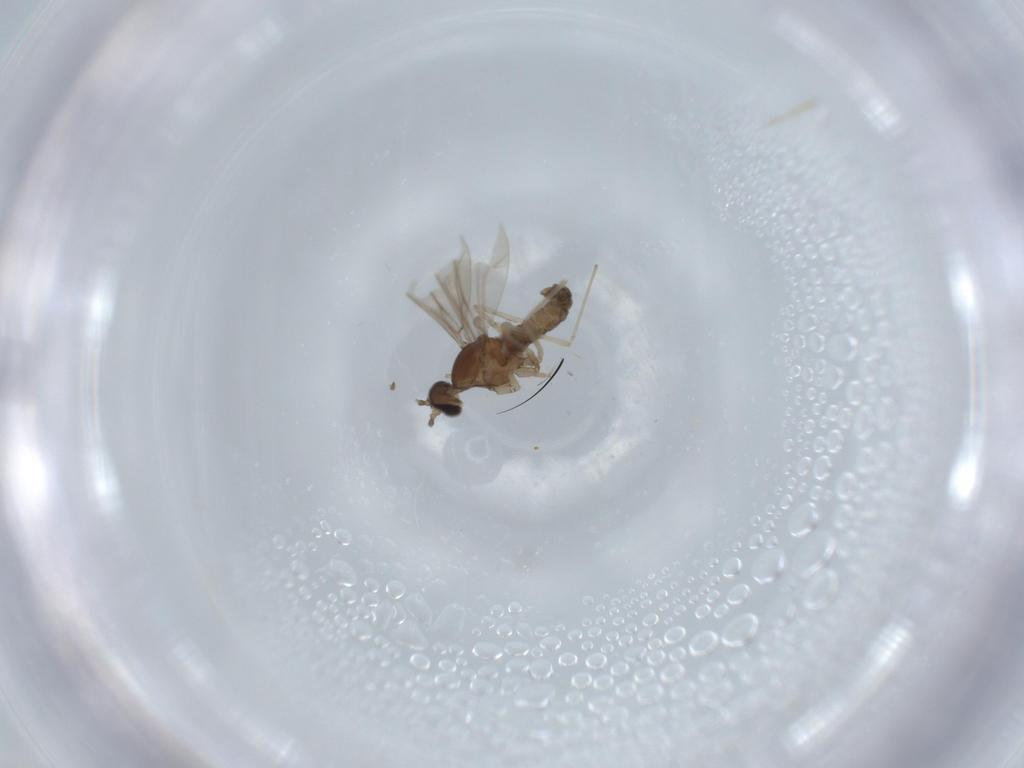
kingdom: Animalia
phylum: Arthropoda
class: Insecta
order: Diptera
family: Cecidomyiidae
